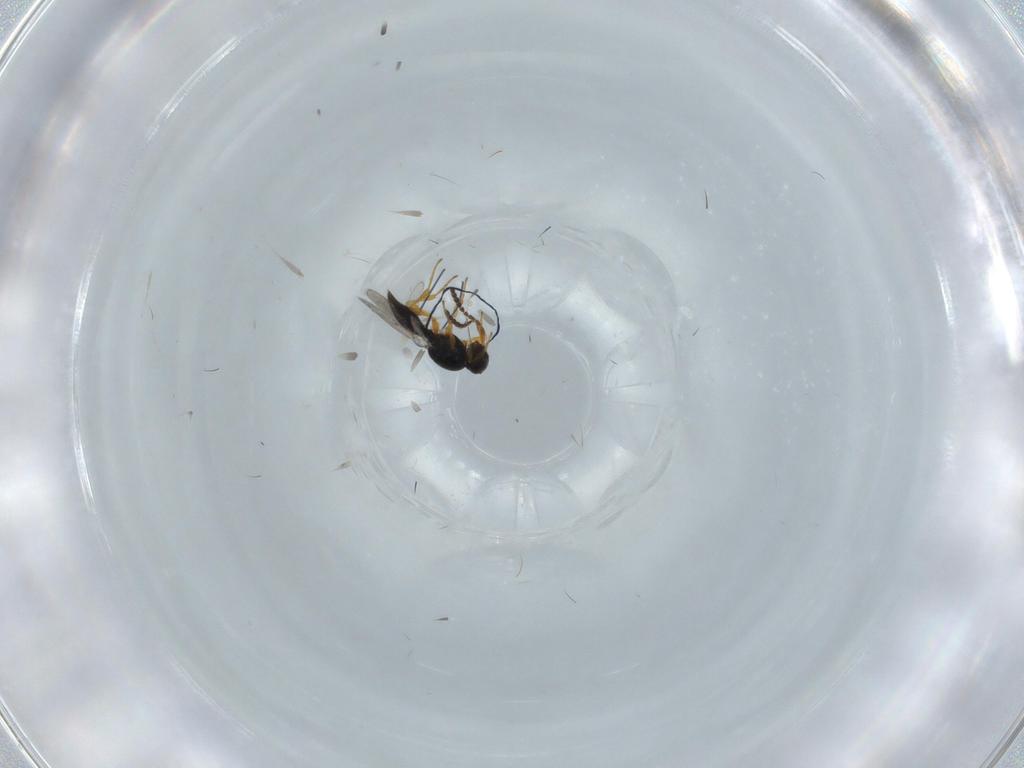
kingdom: Animalia
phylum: Arthropoda
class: Insecta
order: Hymenoptera
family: Platygastridae
